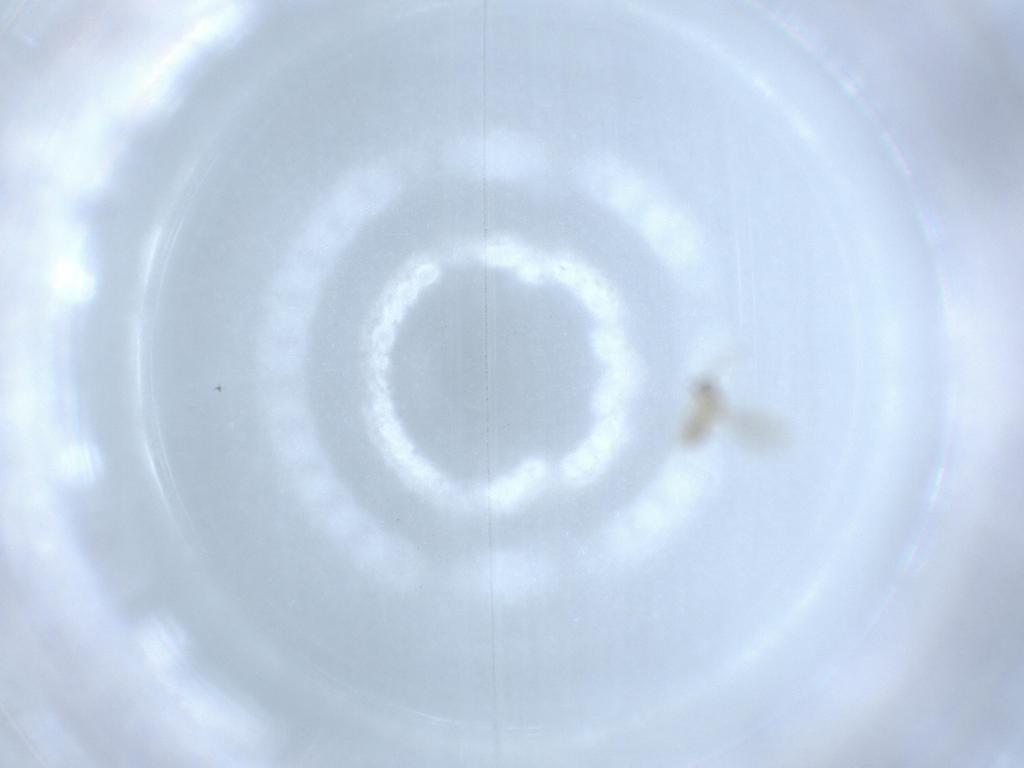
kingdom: Animalia
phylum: Arthropoda
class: Insecta
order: Diptera
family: Cecidomyiidae
